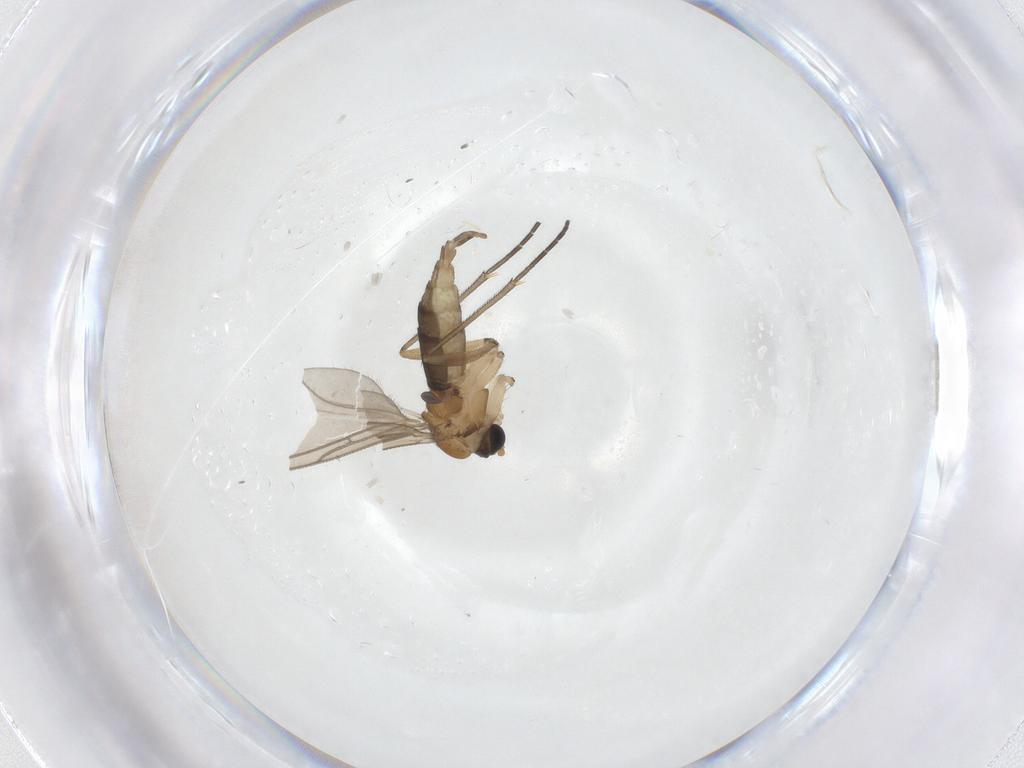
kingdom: Animalia
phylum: Arthropoda
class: Insecta
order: Diptera
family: Sciaridae
